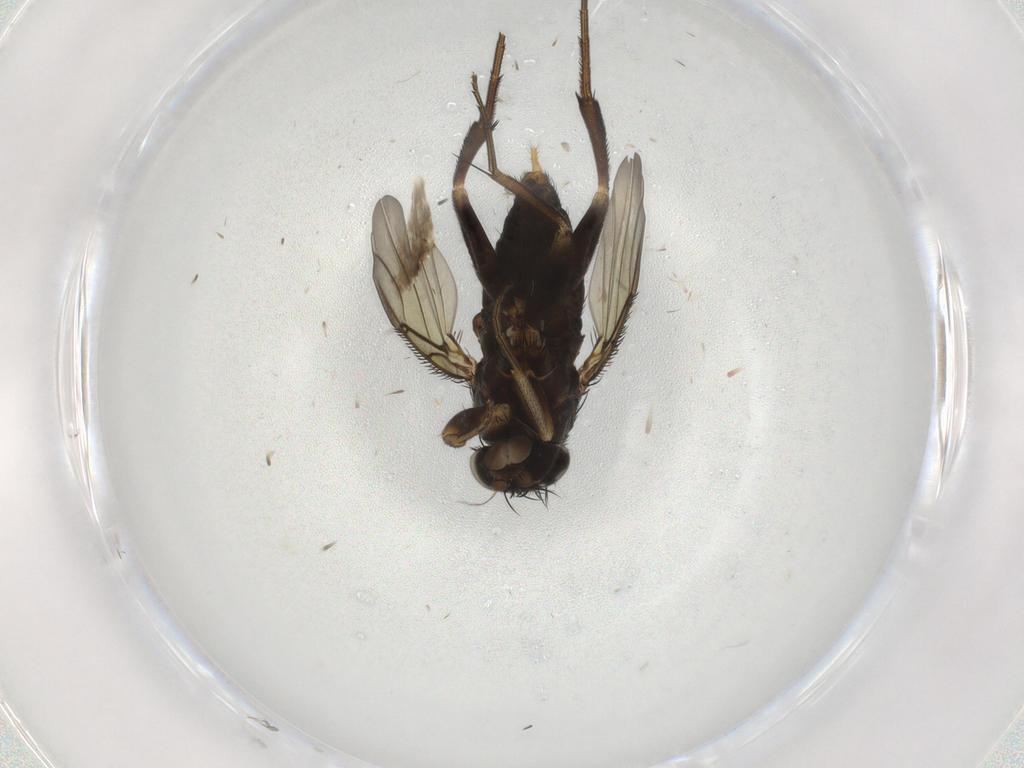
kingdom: Animalia
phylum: Arthropoda
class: Insecta
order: Diptera
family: Phoridae
